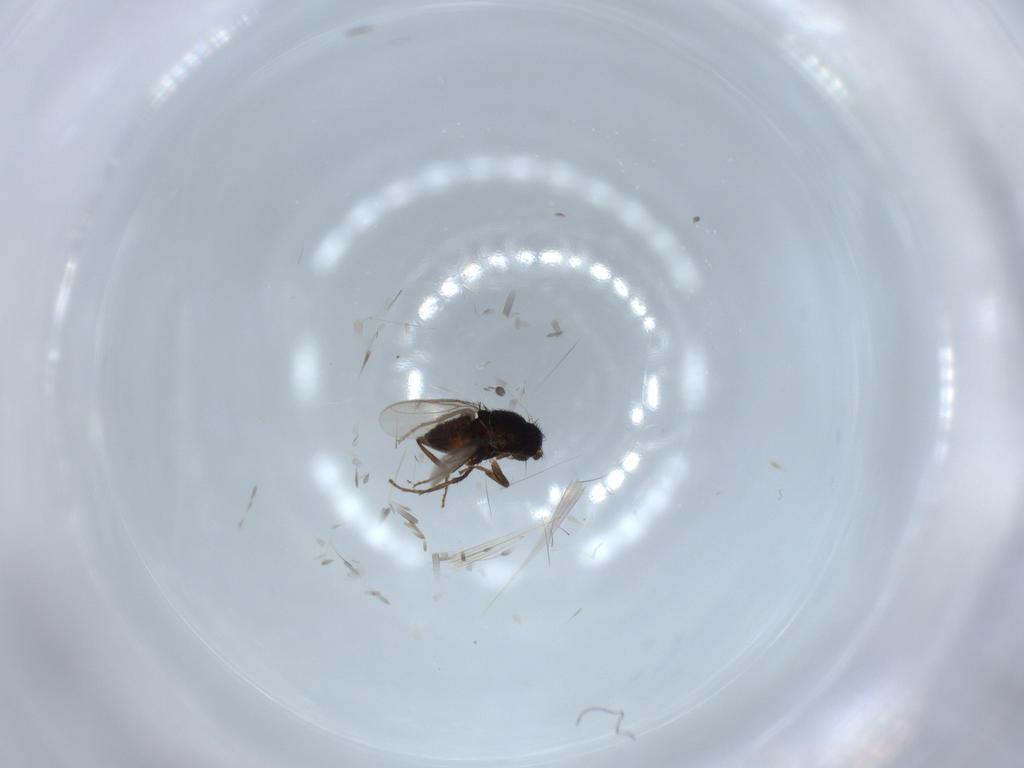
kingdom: Animalia
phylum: Arthropoda
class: Insecta
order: Diptera
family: Sphaeroceridae
